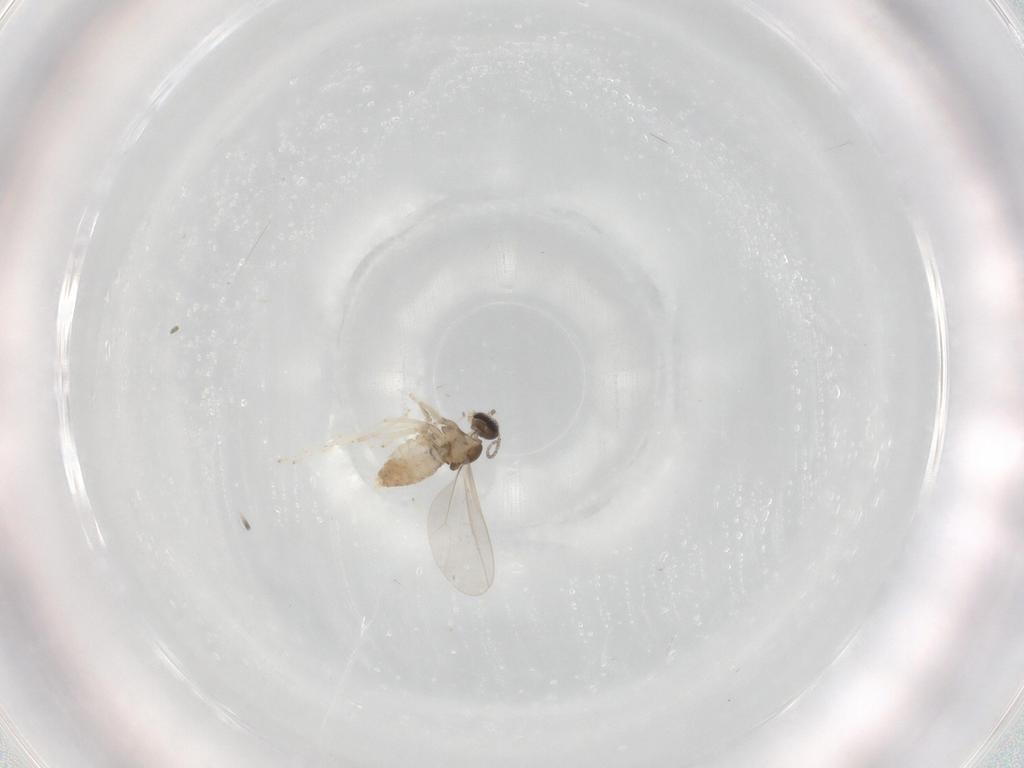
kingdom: Animalia
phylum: Arthropoda
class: Insecta
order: Diptera
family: Cecidomyiidae
